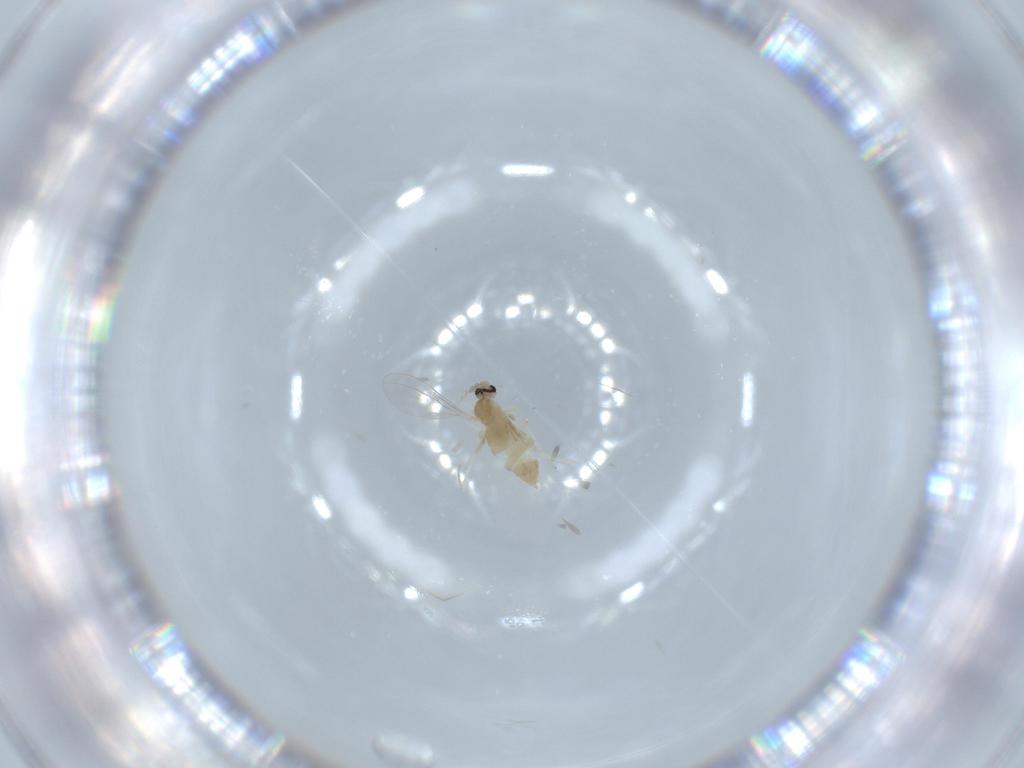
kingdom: Animalia
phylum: Arthropoda
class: Insecta
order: Diptera
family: Cecidomyiidae
